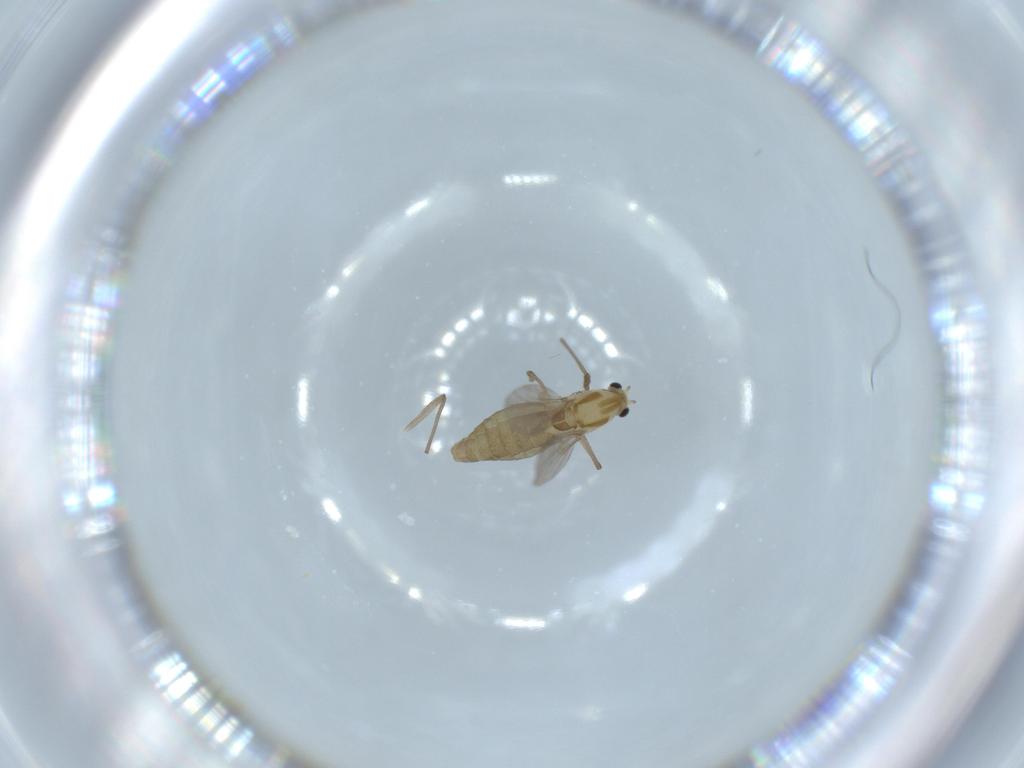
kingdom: Animalia
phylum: Arthropoda
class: Insecta
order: Diptera
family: Chironomidae
